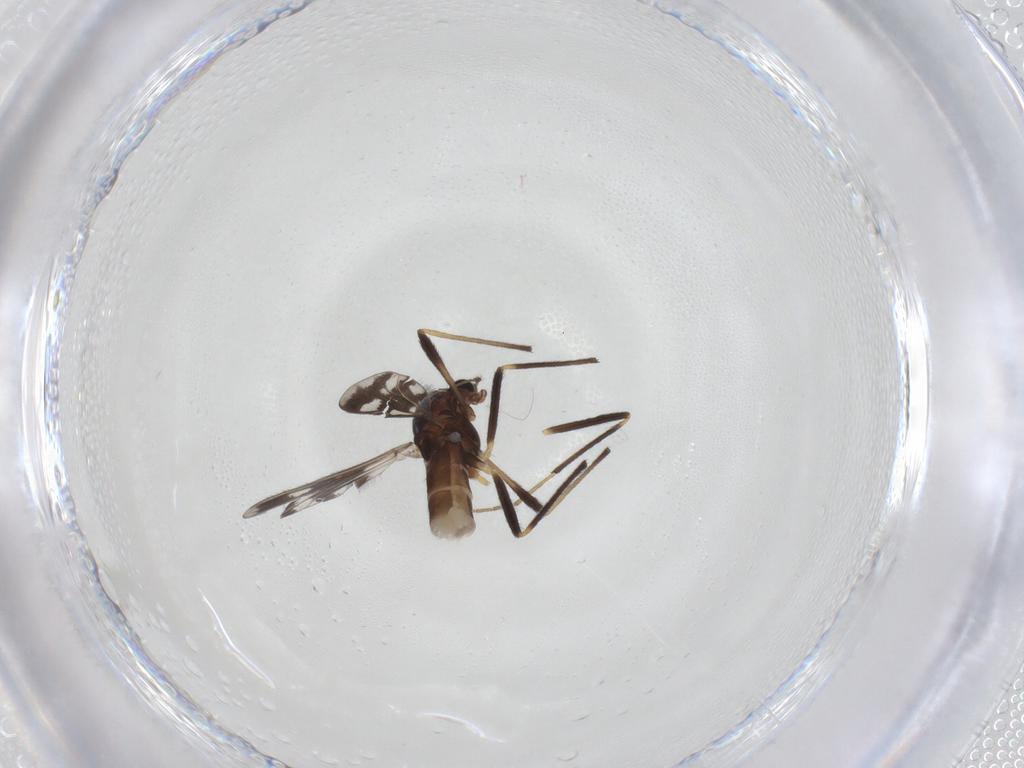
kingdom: Animalia
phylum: Arthropoda
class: Insecta
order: Diptera
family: Chironomidae
